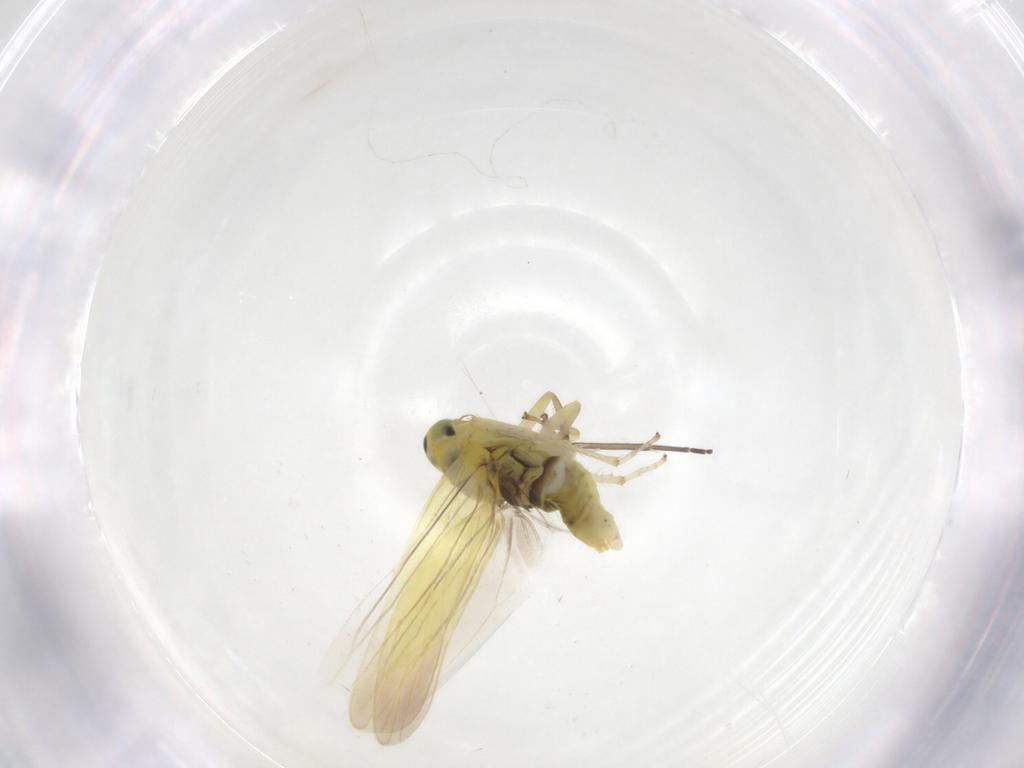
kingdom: Animalia
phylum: Arthropoda
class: Insecta
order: Hemiptera
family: Cicadellidae
